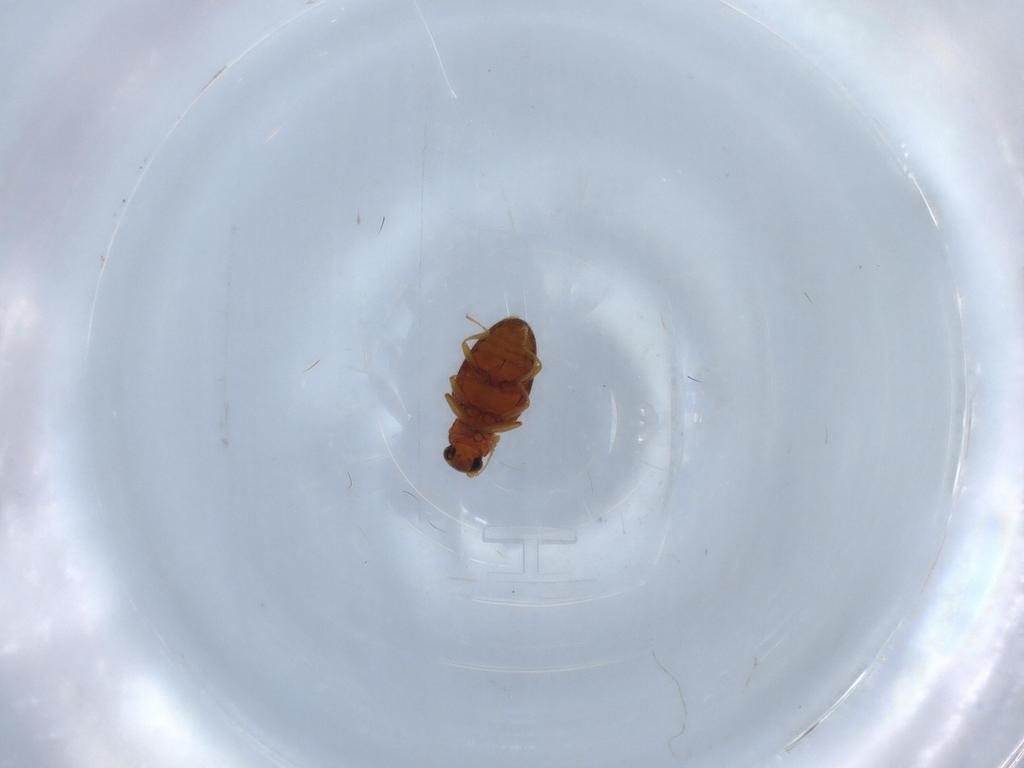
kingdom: Animalia
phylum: Arthropoda
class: Insecta
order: Coleoptera
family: Latridiidae
